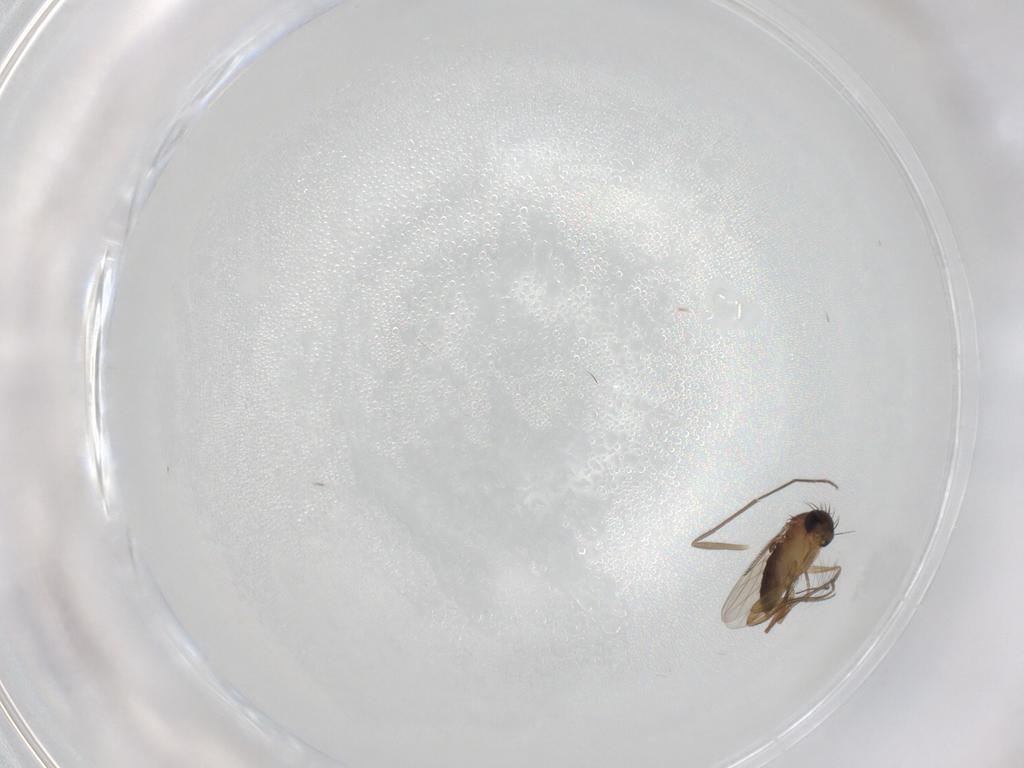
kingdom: Animalia
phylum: Arthropoda
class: Insecta
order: Diptera
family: Chironomidae
